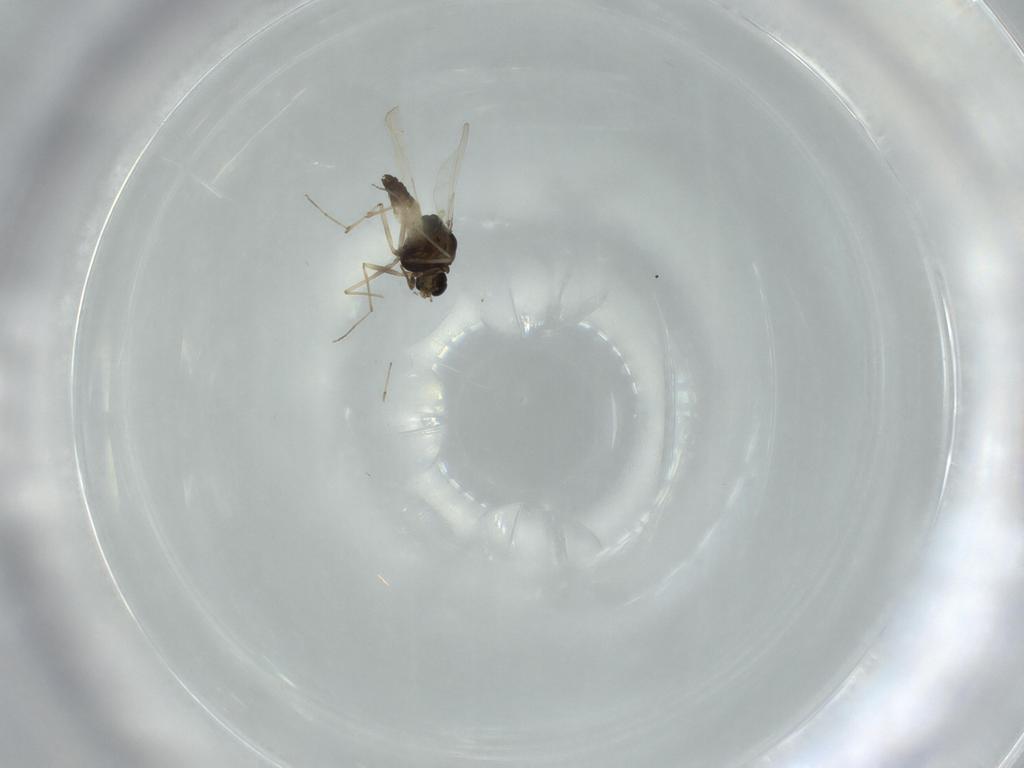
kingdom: Animalia
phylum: Arthropoda
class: Insecta
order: Diptera
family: Chironomidae
